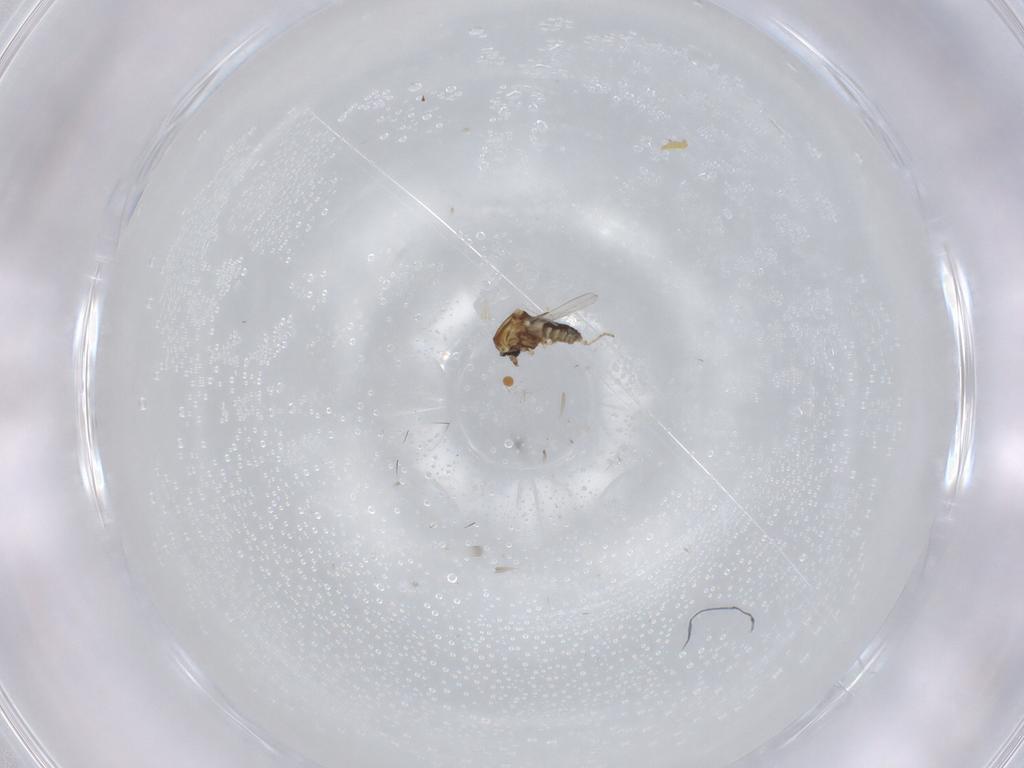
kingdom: Animalia
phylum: Arthropoda
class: Insecta
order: Diptera
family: Ceratopogonidae
